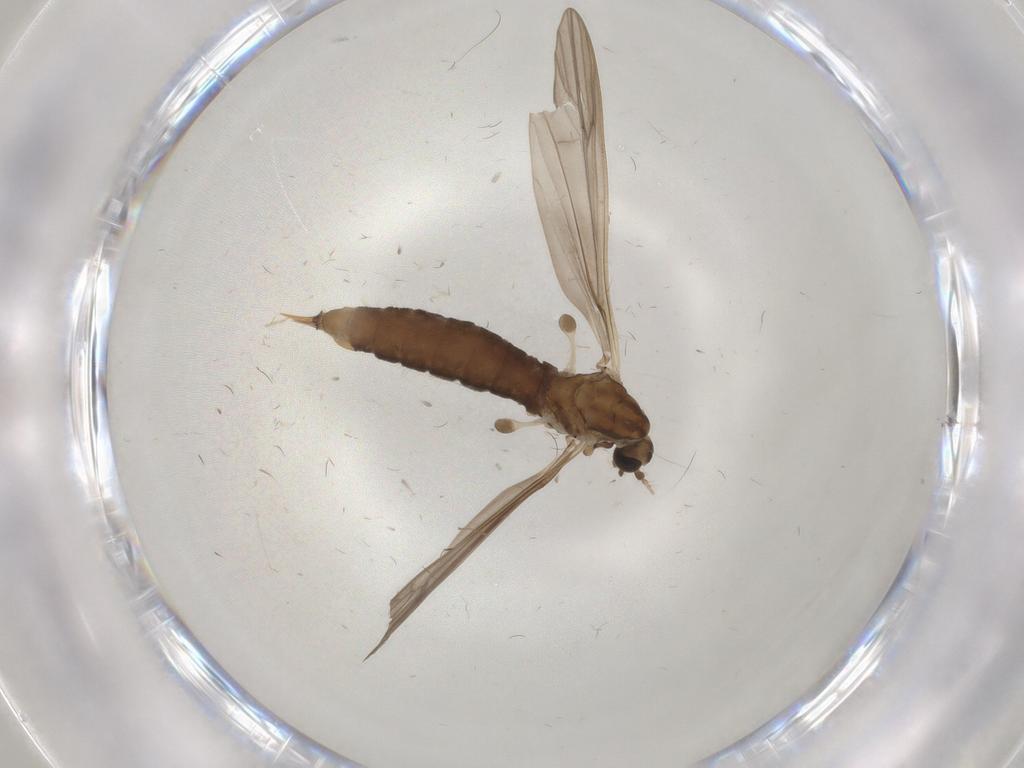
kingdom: Animalia
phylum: Arthropoda
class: Insecta
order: Diptera
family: Limoniidae
